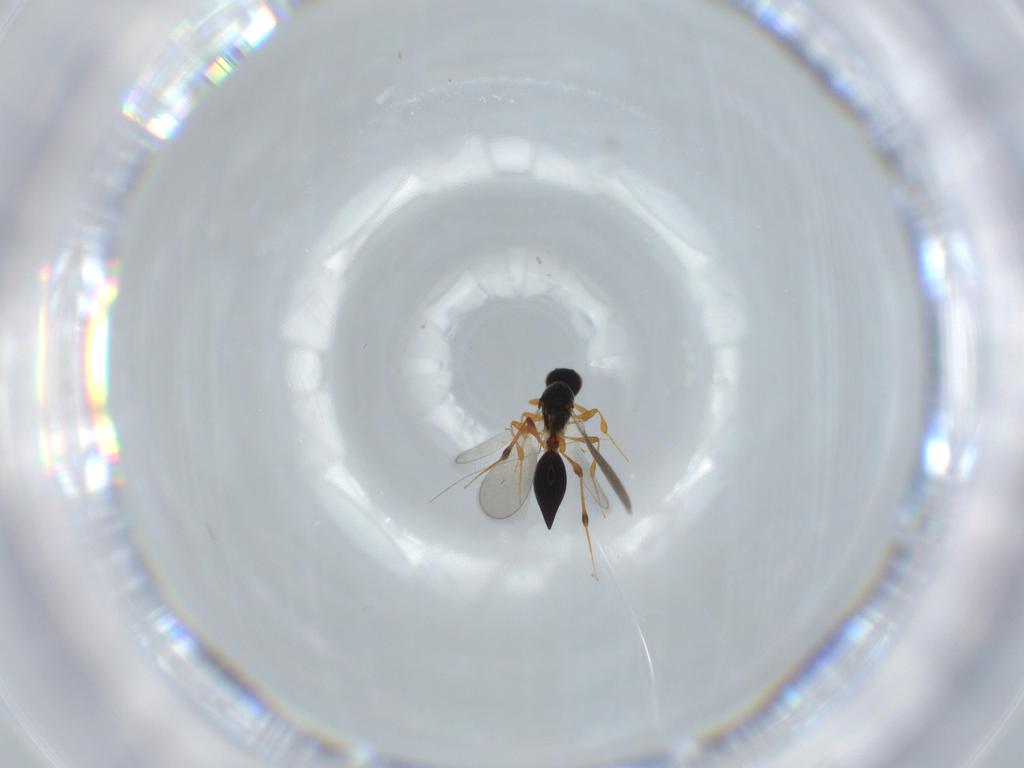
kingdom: Animalia
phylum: Arthropoda
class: Insecta
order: Hymenoptera
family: Platygastridae
